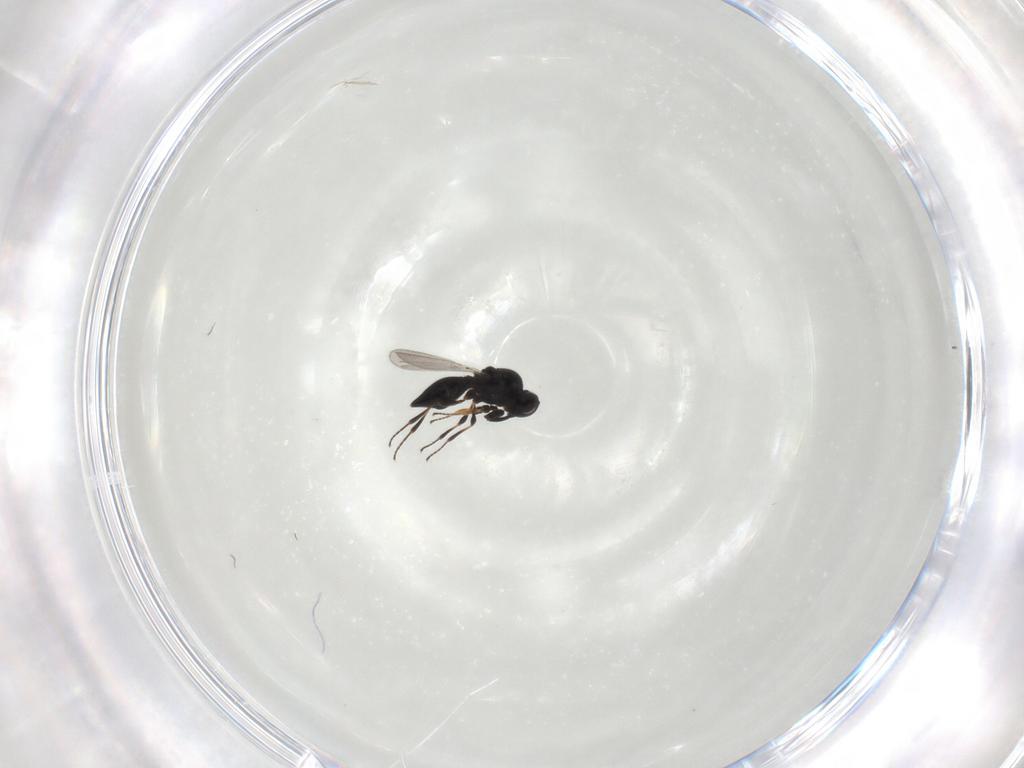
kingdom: Animalia
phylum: Arthropoda
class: Insecta
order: Hymenoptera
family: Platygastridae
